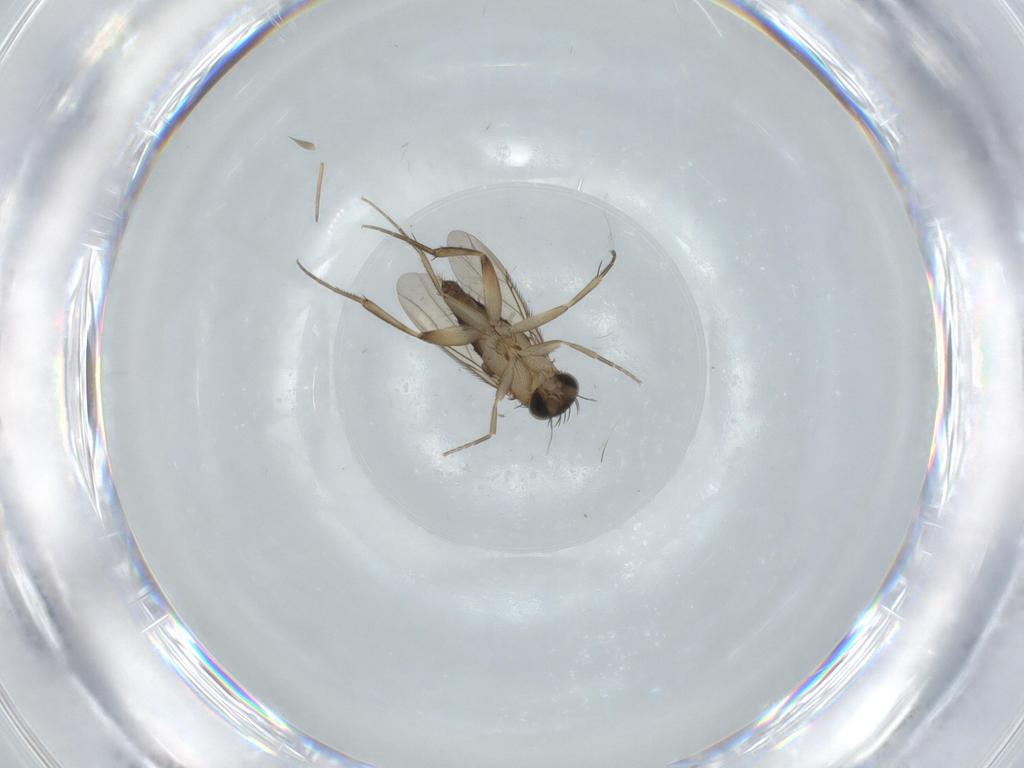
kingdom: Animalia
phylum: Arthropoda
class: Insecta
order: Diptera
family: Phoridae
